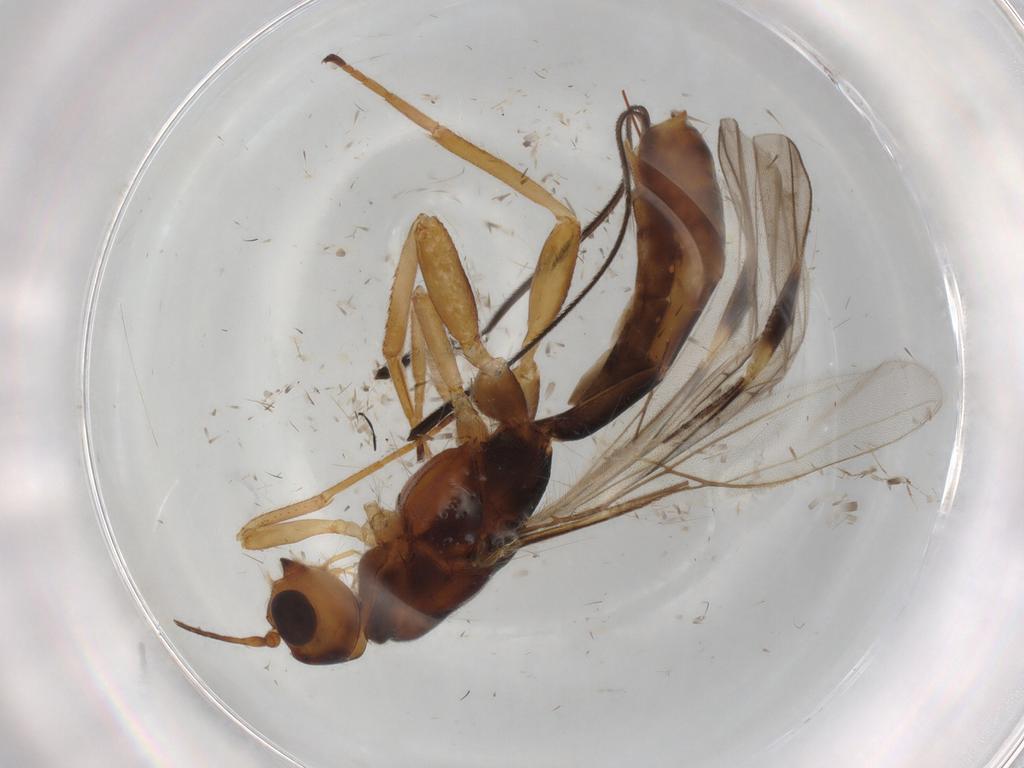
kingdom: Animalia
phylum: Arthropoda
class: Insecta
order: Hymenoptera
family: Braconidae
